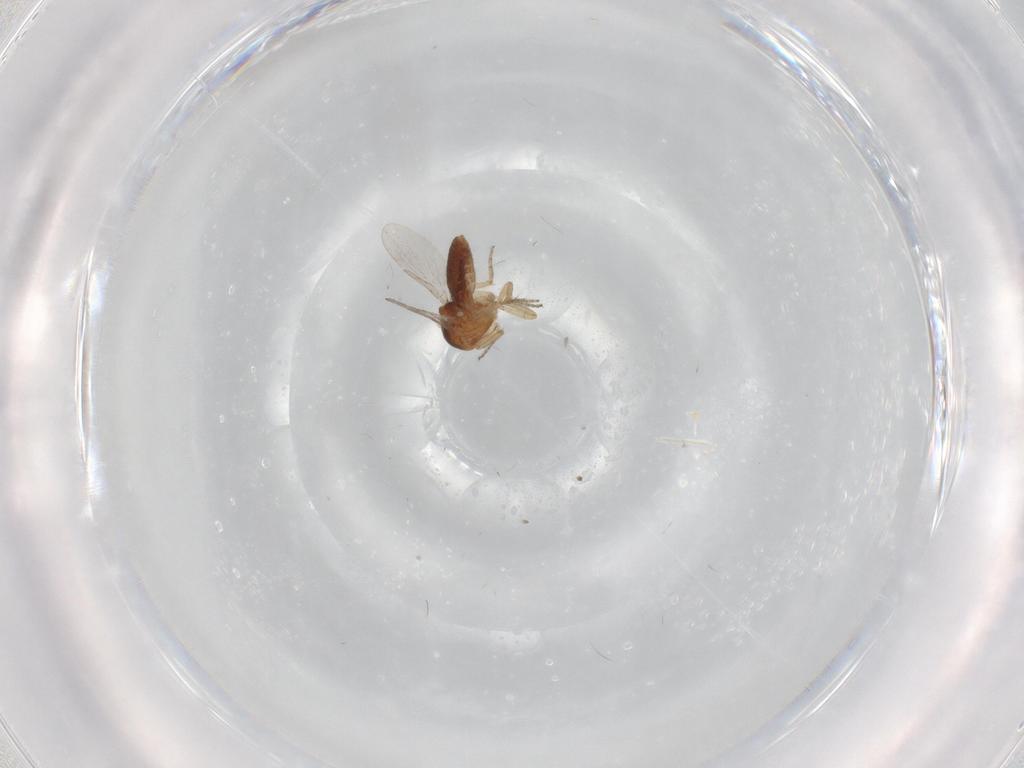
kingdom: Animalia
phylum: Arthropoda
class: Insecta
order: Diptera
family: Ceratopogonidae
